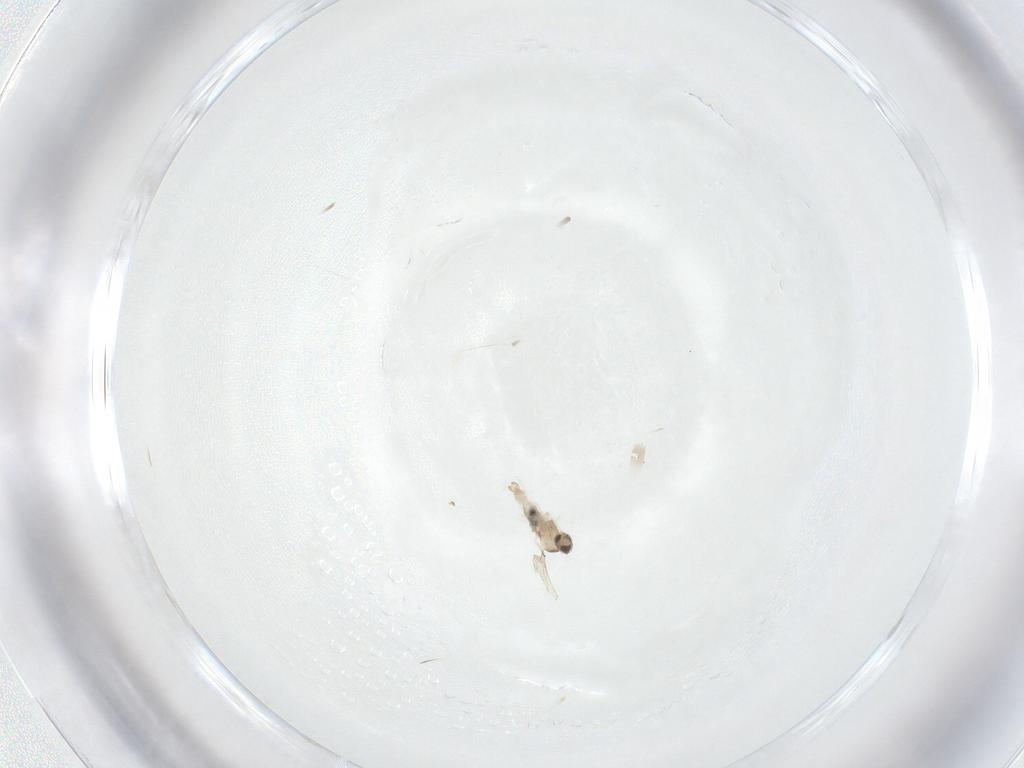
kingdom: Animalia
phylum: Arthropoda
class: Insecta
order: Diptera
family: Cecidomyiidae
